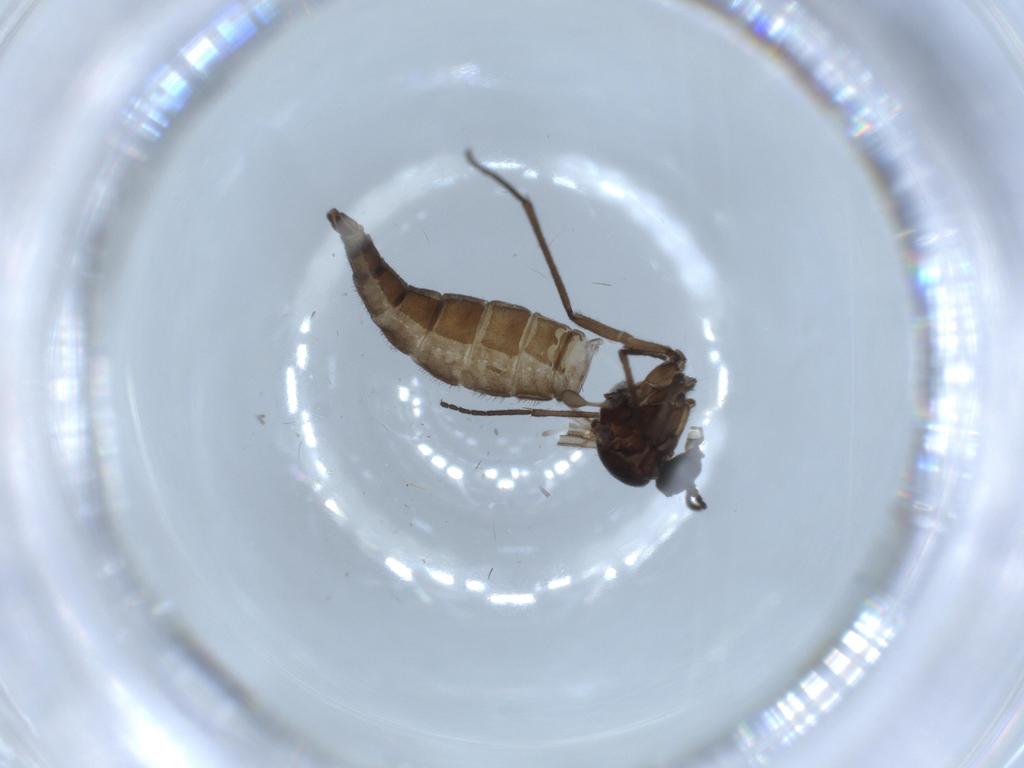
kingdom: Animalia
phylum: Arthropoda
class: Insecta
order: Diptera
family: Sciaridae
